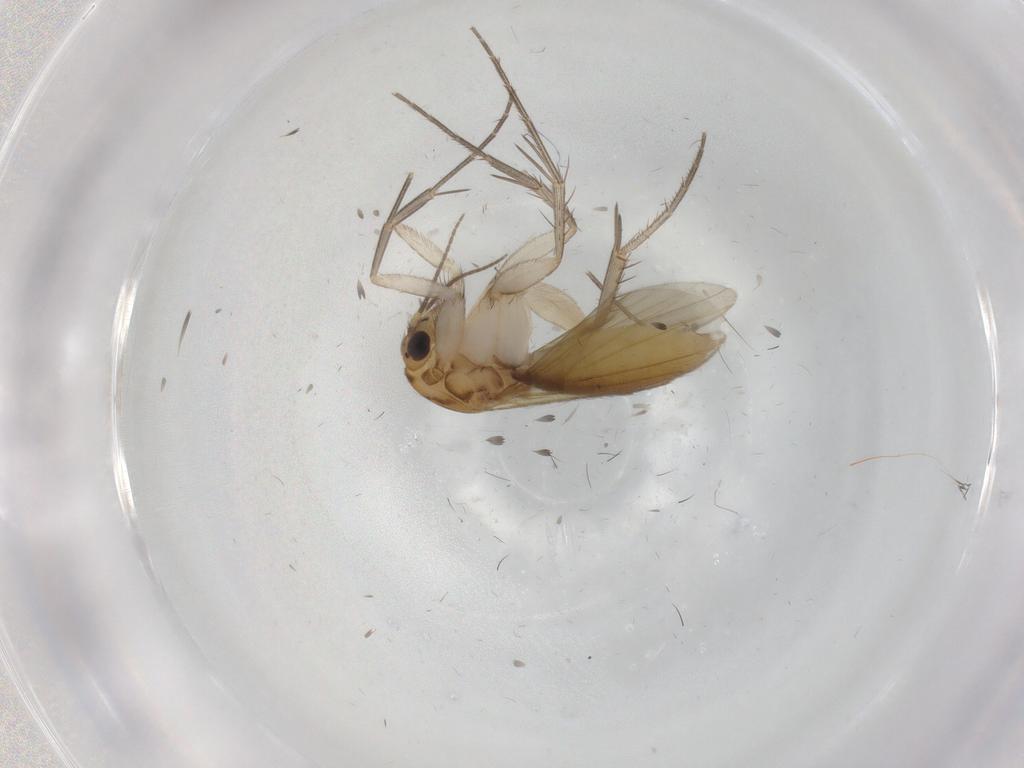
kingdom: Animalia
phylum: Arthropoda
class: Insecta
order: Diptera
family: Mycetophilidae
